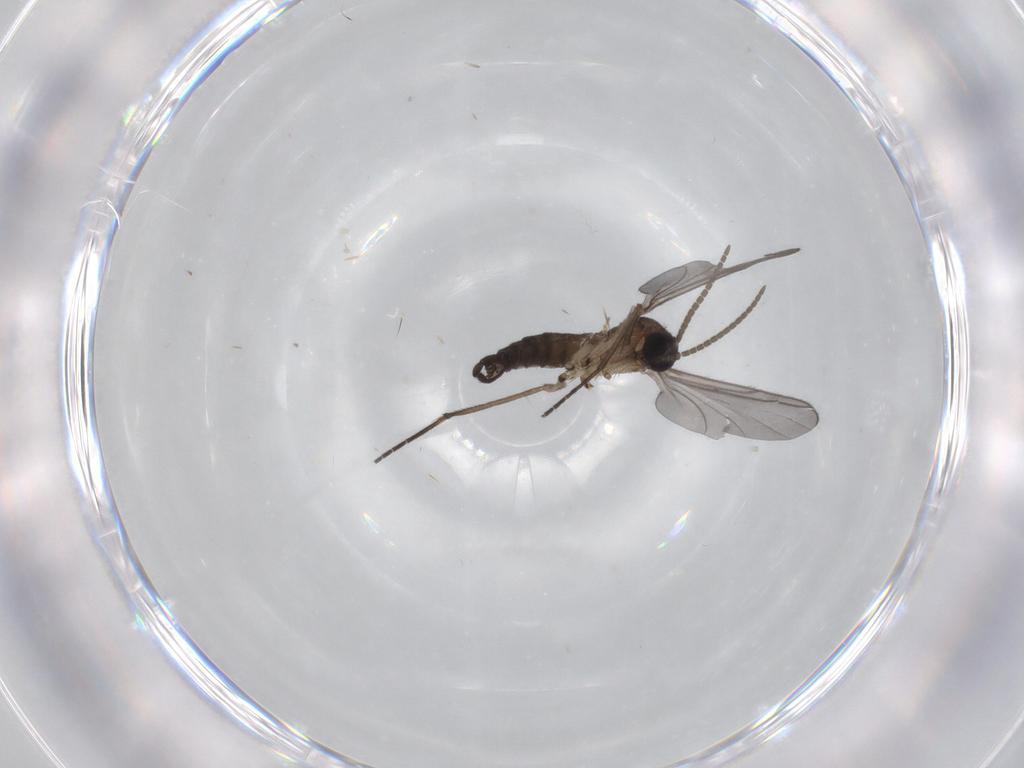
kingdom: Animalia
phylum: Arthropoda
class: Insecta
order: Diptera
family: Sciaridae
